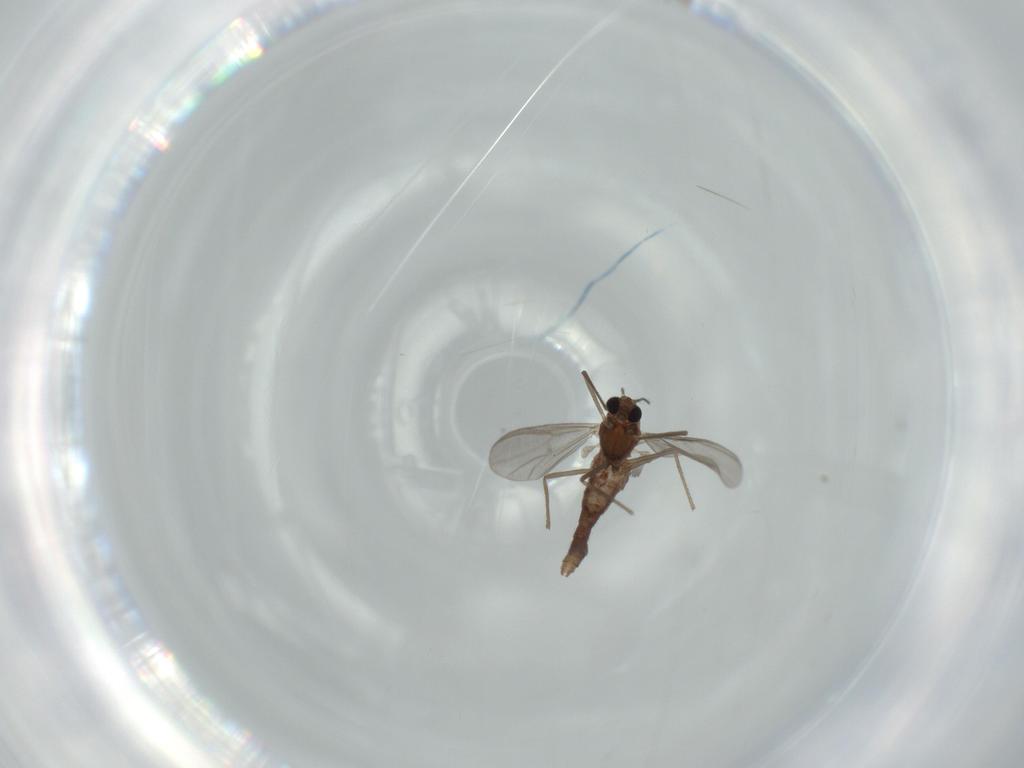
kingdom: Animalia
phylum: Arthropoda
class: Insecta
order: Diptera
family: Chironomidae
